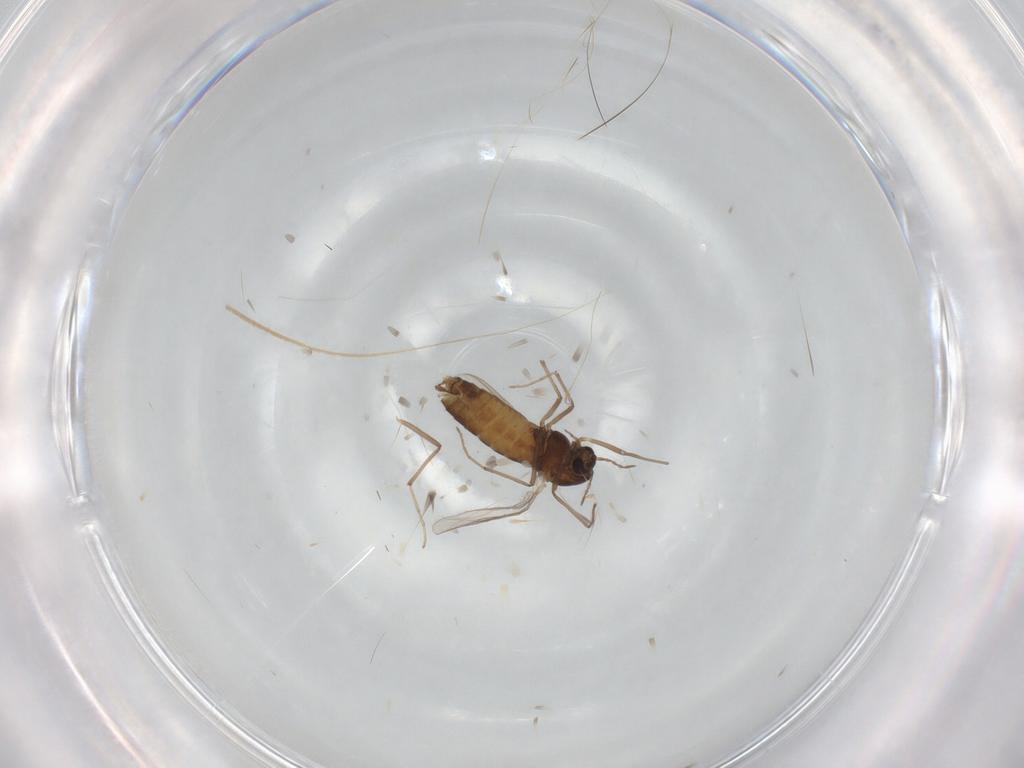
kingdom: Animalia
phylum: Arthropoda
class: Insecta
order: Diptera
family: Chironomidae
